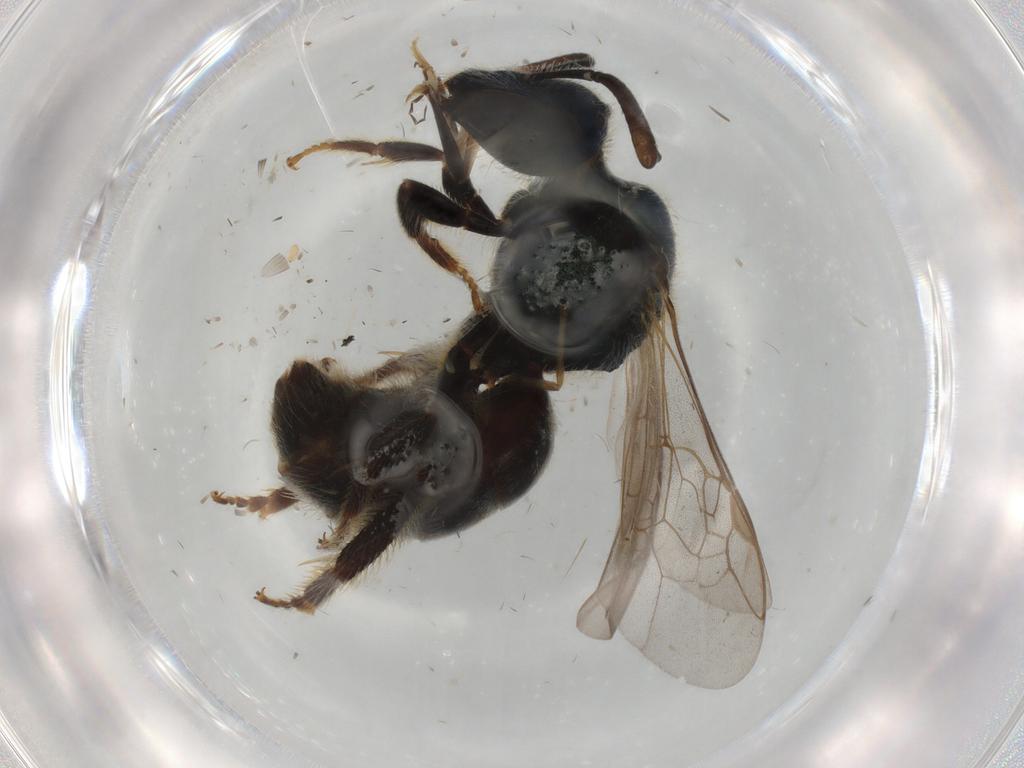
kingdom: Animalia
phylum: Arthropoda
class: Insecta
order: Hymenoptera
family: Halictidae
